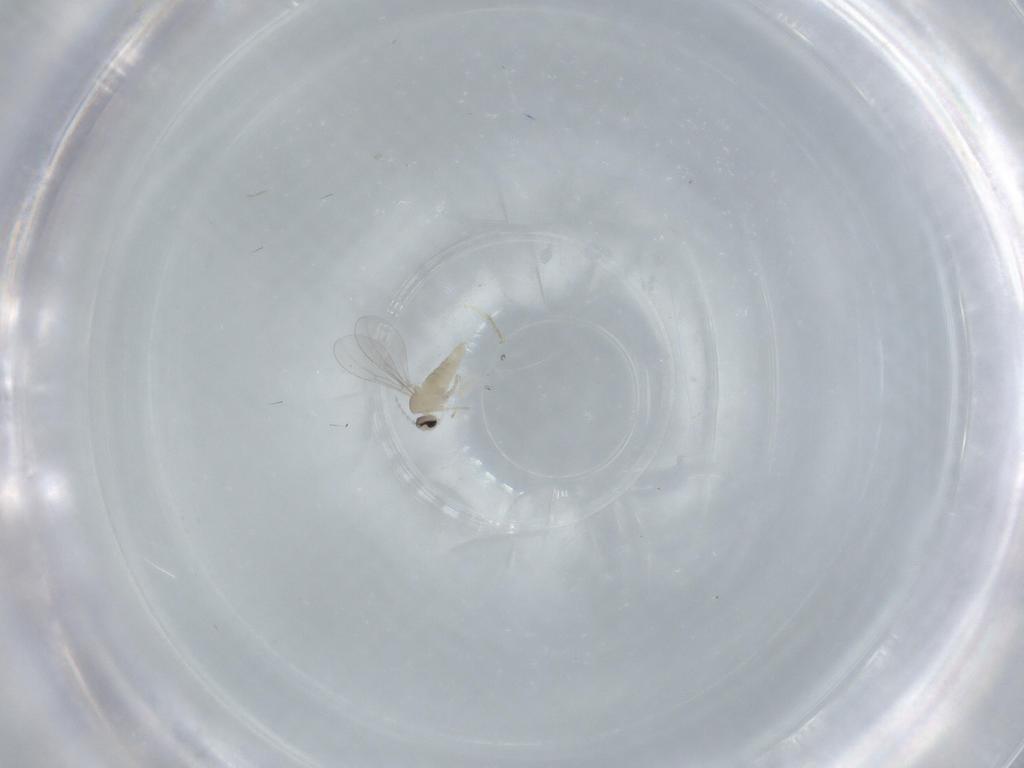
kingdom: Animalia
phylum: Arthropoda
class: Insecta
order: Diptera
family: Cecidomyiidae
